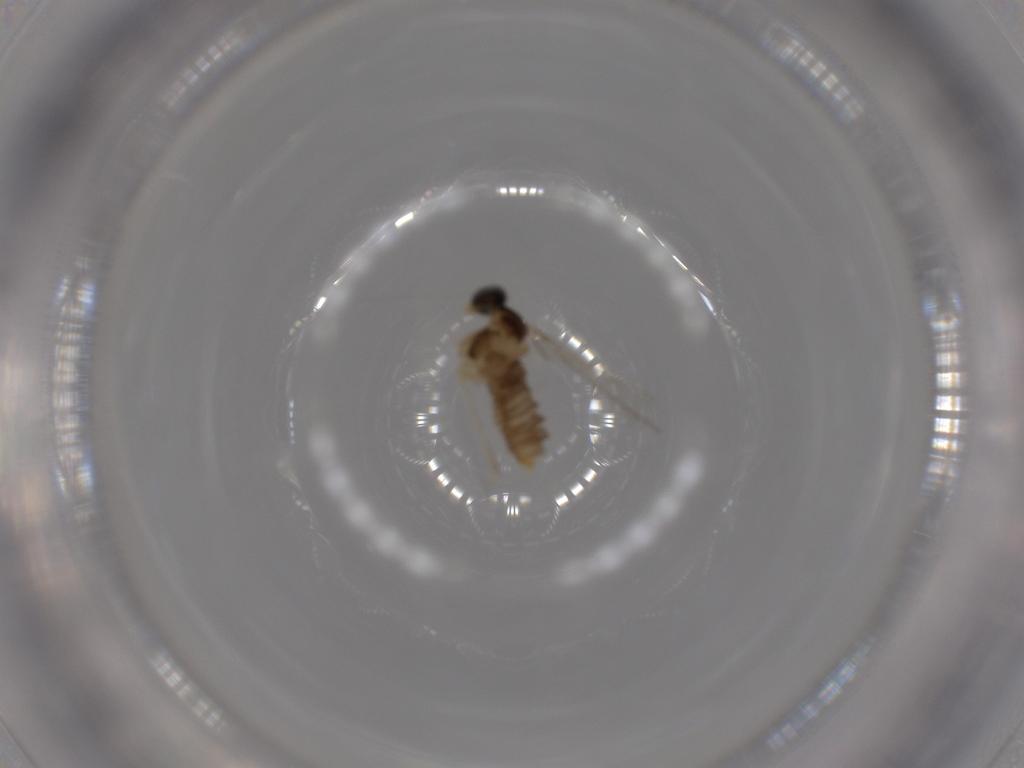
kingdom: Animalia
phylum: Arthropoda
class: Insecta
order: Diptera
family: Cecidomyiidae
